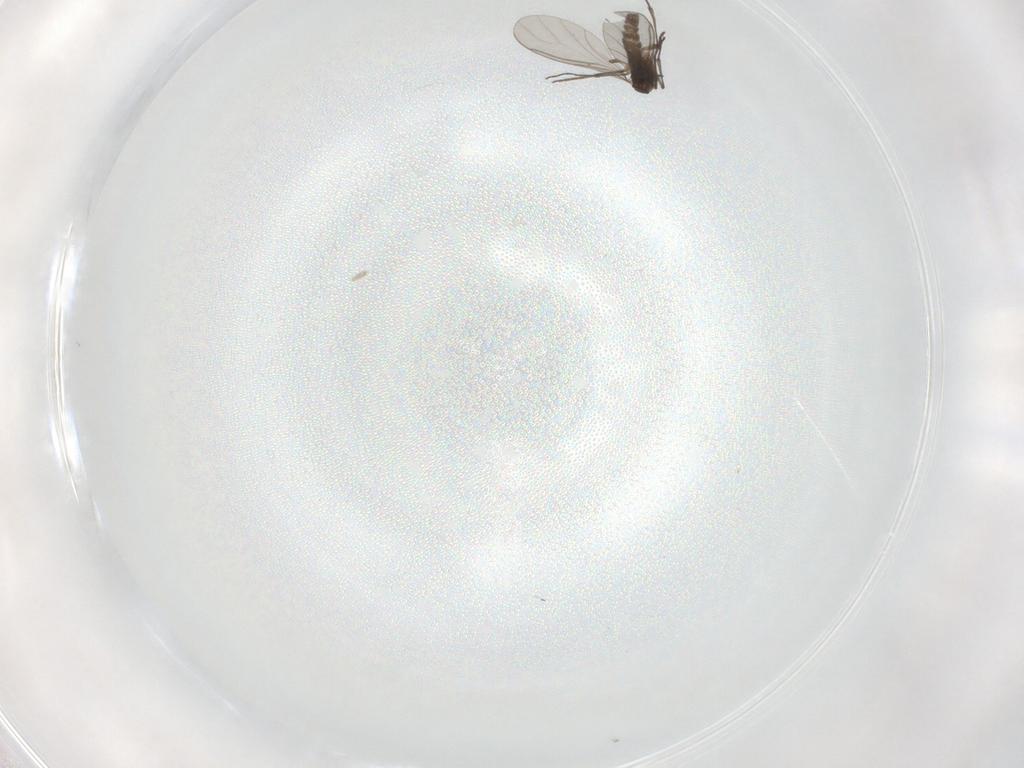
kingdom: Animalia
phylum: Arthropoda
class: Insecta
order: Diptera
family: Sciaridae
